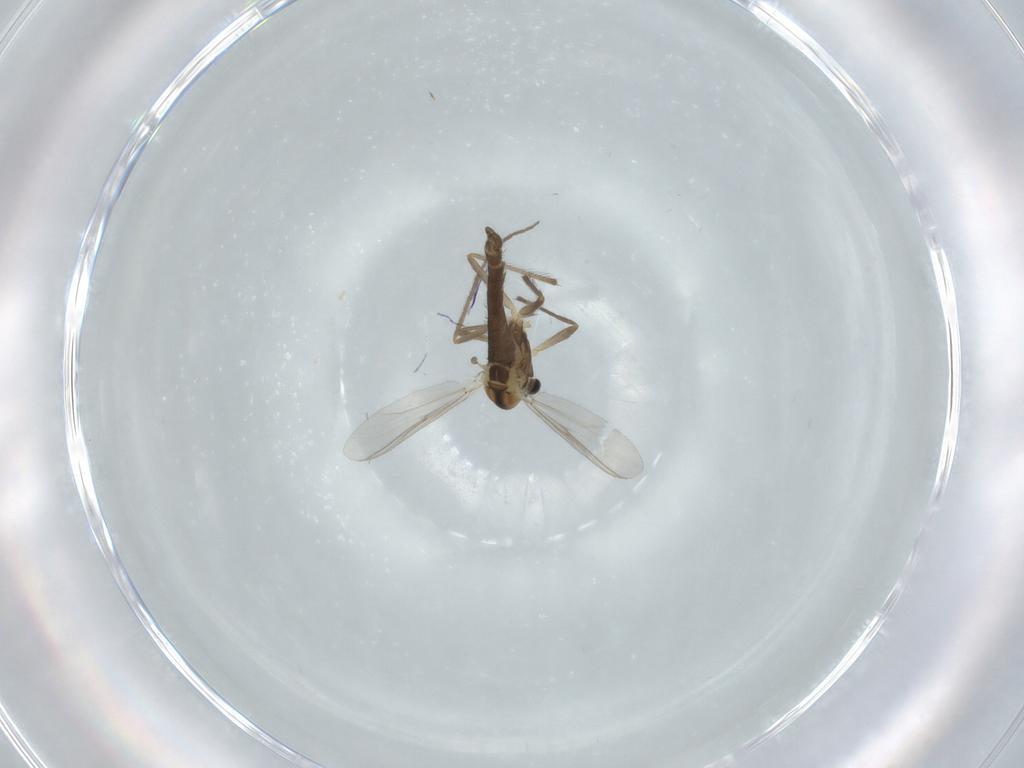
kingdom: Animalia
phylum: Arthropoda
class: Insecta
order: Diptera
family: Chironomidae
